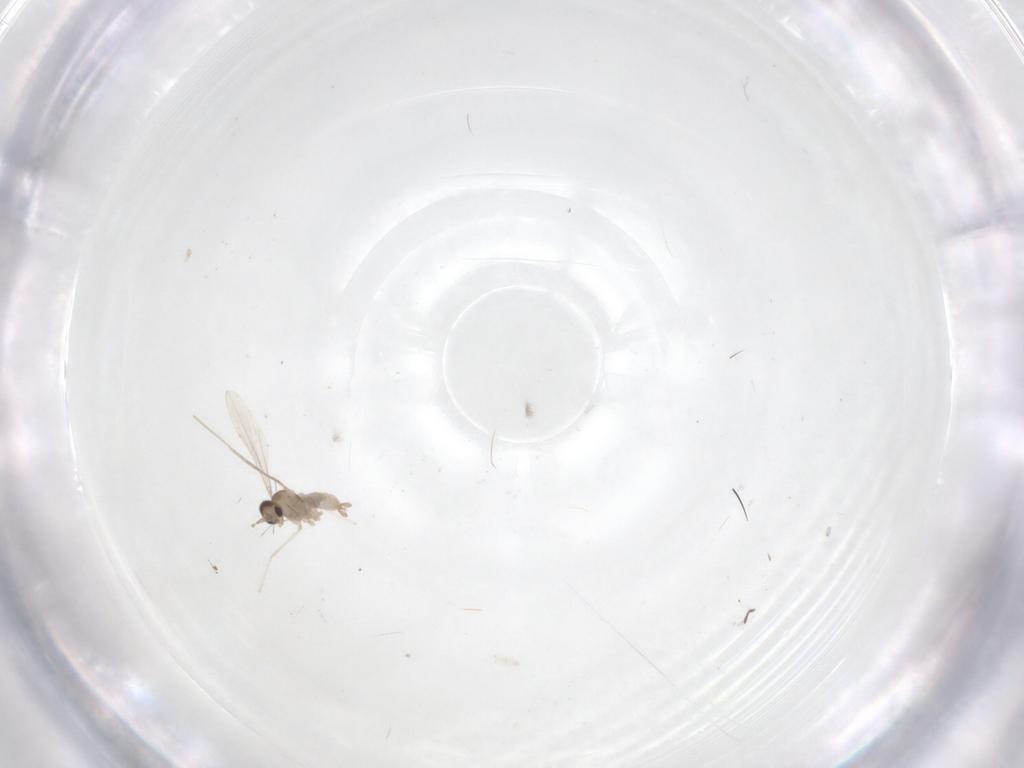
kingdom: Animalia
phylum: Arthropoda
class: Insecta
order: Diptera
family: Cecidomyiidae
